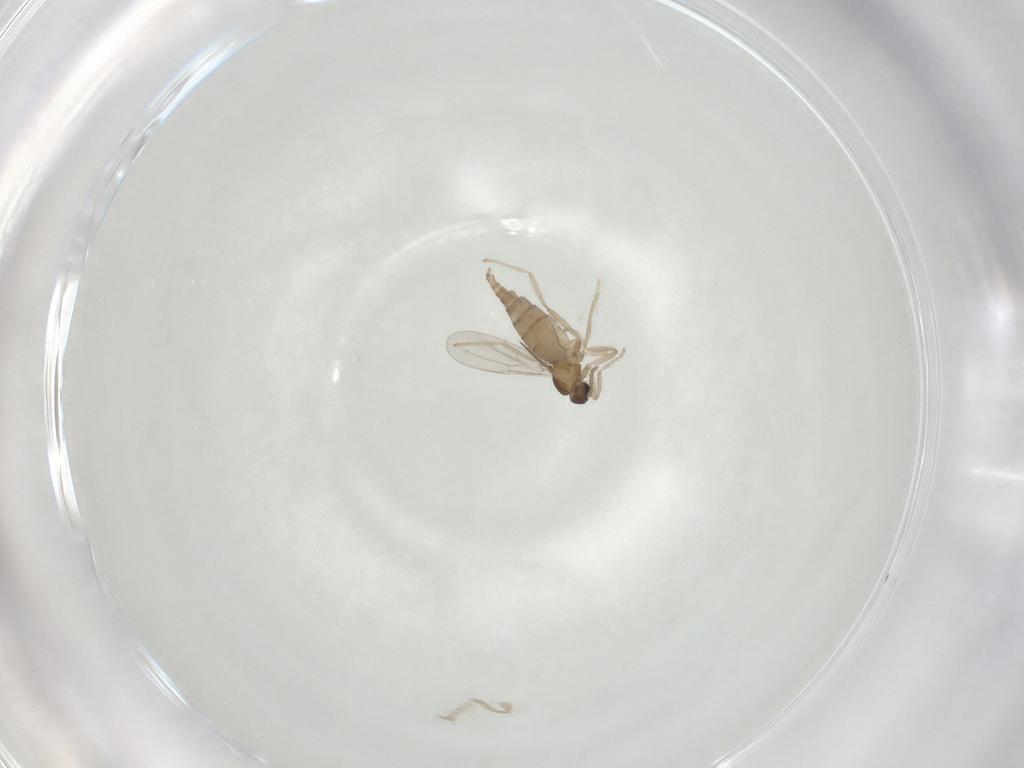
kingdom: Animalia
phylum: Arthropoda
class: Insecta
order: Diptera
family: Cecidomyiidae
